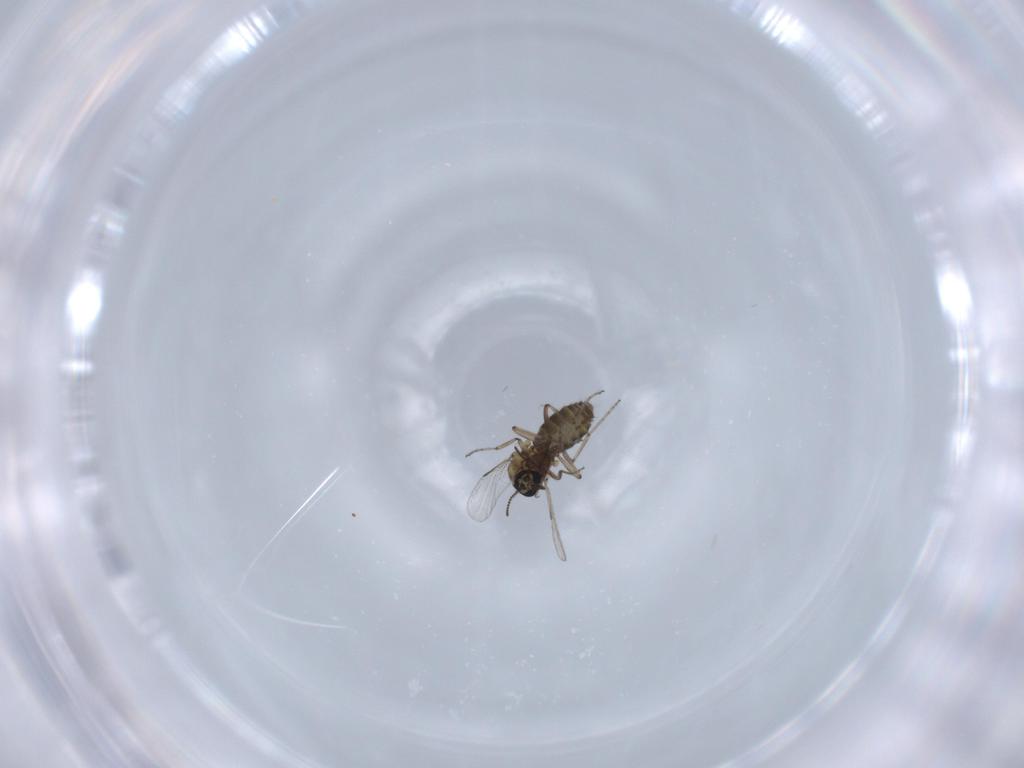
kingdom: Animalia
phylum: Arthropoda
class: Insecta
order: Diptera
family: Ceratopogonidae
